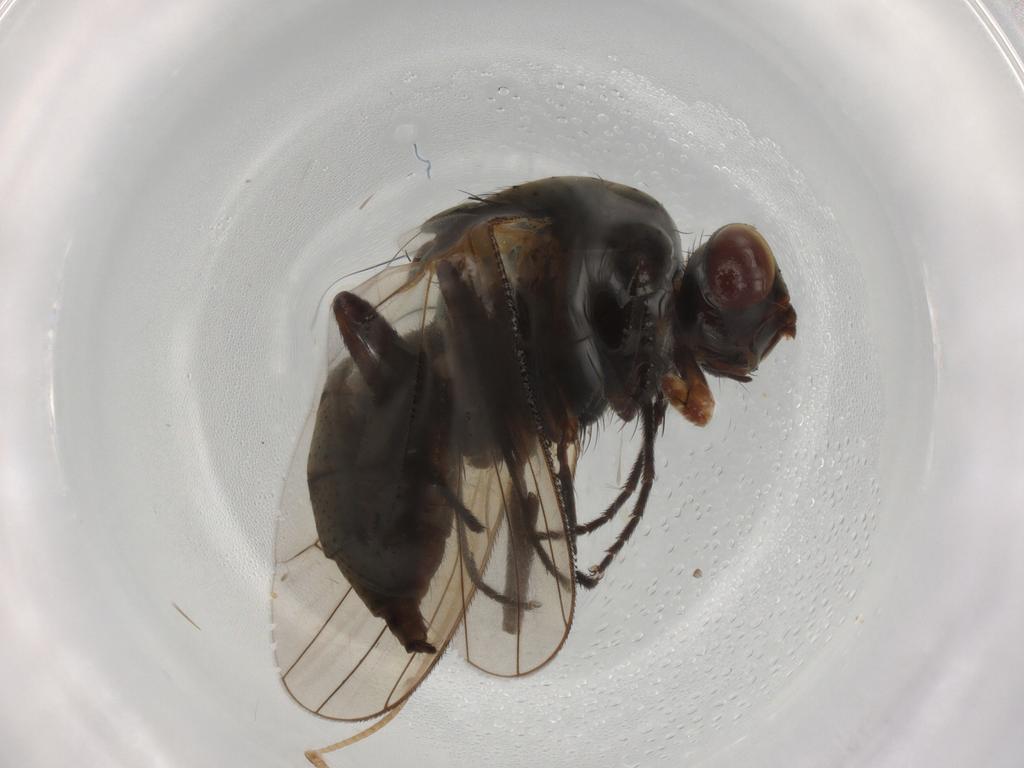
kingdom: Animalia
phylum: Arthropoda
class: Insecta
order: Diptera
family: Anthomyiidae
